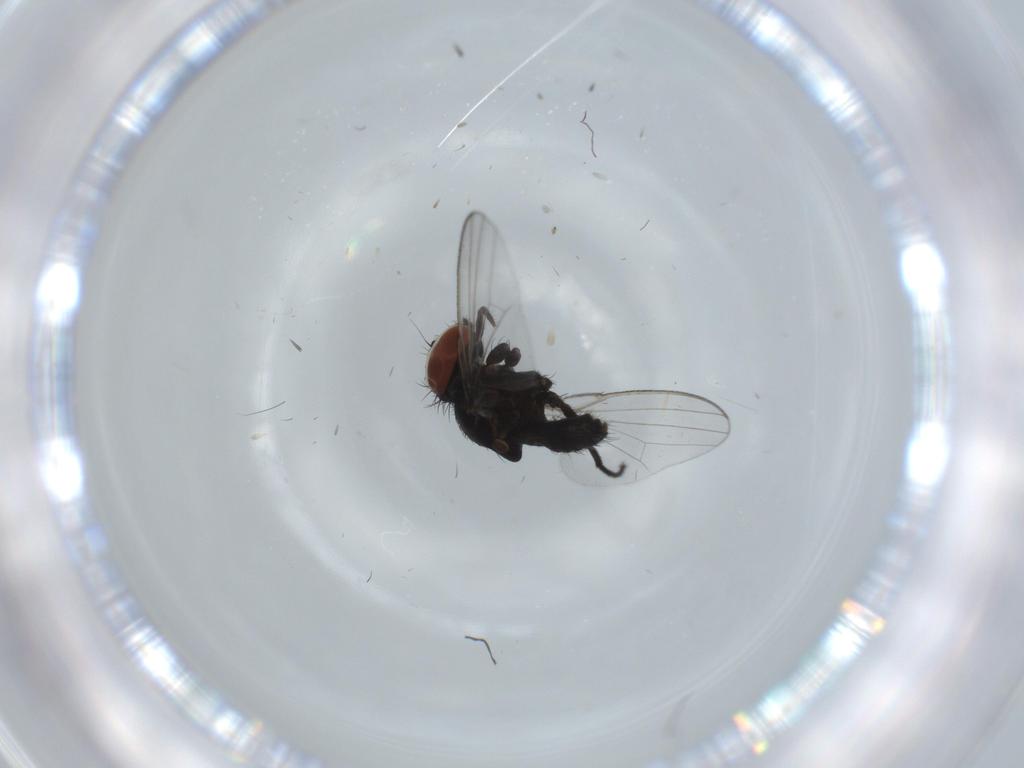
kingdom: Animalia
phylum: Arthropoda
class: Insecta
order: Diptera
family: Milichiidae
